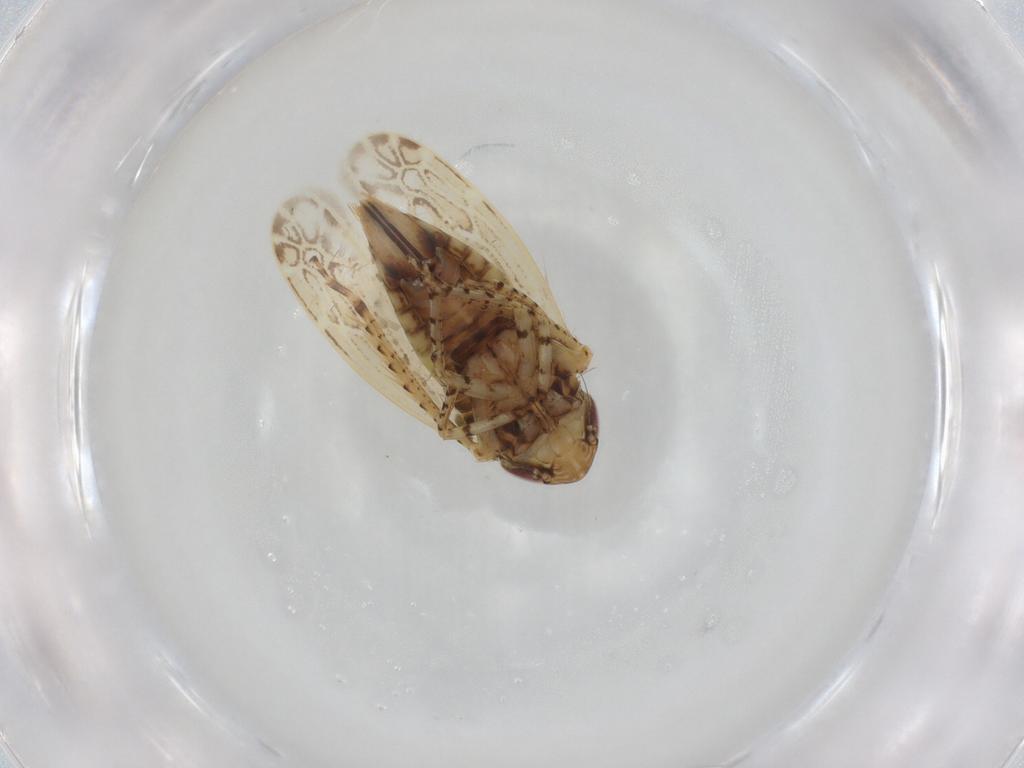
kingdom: Animalia
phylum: Arthropoda
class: Insecta
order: Hemiptera
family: Cicadellidae
